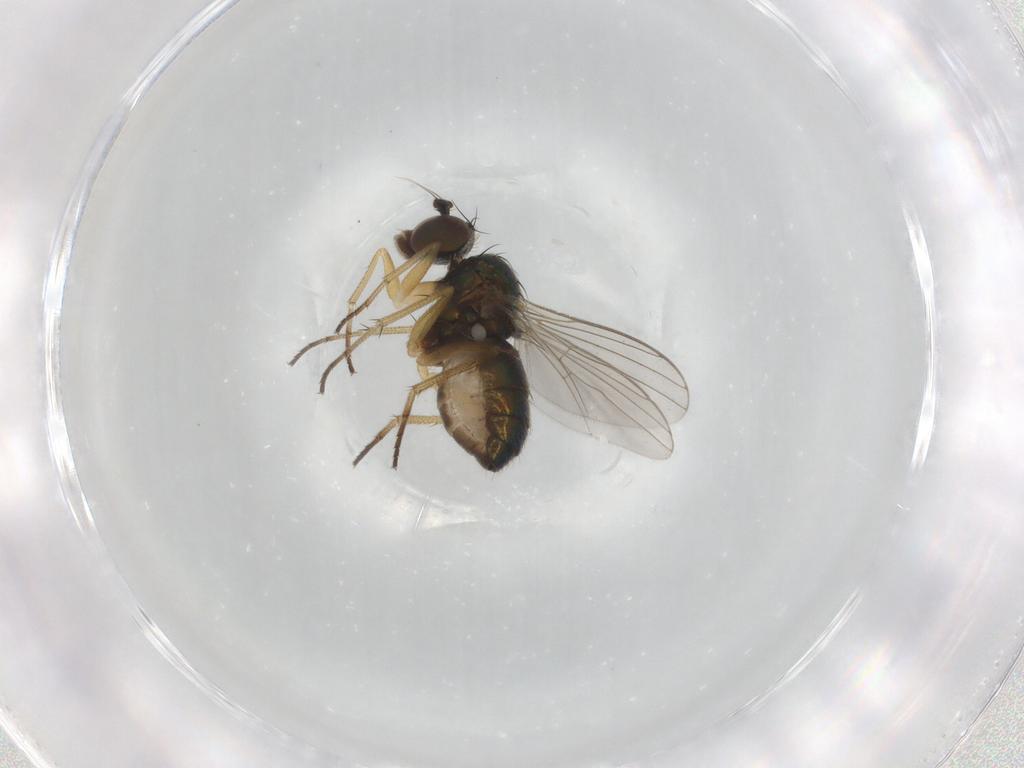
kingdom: Animalia
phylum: Arthropoda
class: Insecta
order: Diptera
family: Dolichopodidae
